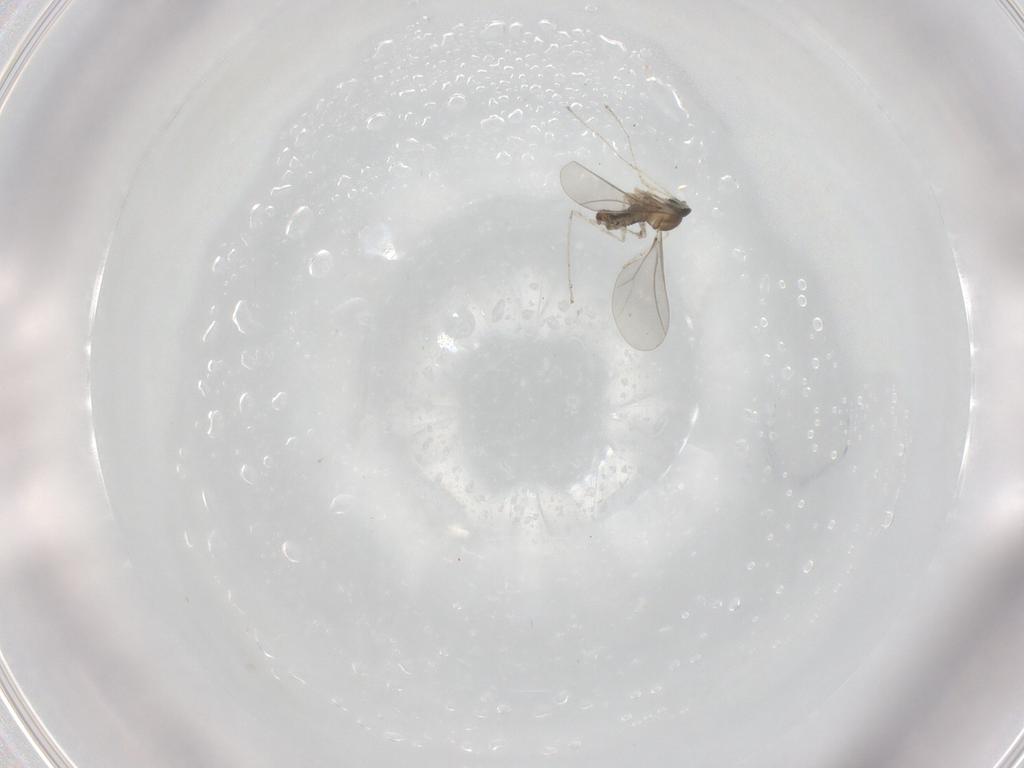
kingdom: Animalia
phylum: Arthropoda
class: Insecta
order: Diptera
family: Cecidomyiidae
